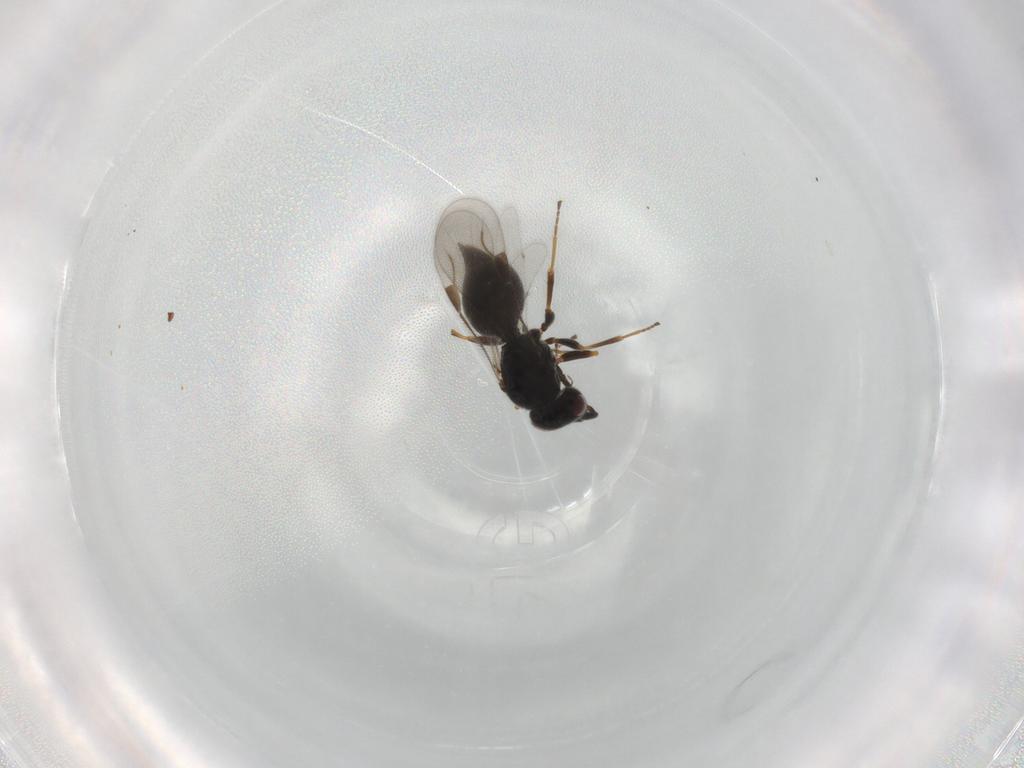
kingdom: Animalia
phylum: Arthropoda
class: Insecta
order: Hymenoptera
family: Megaspilidae
